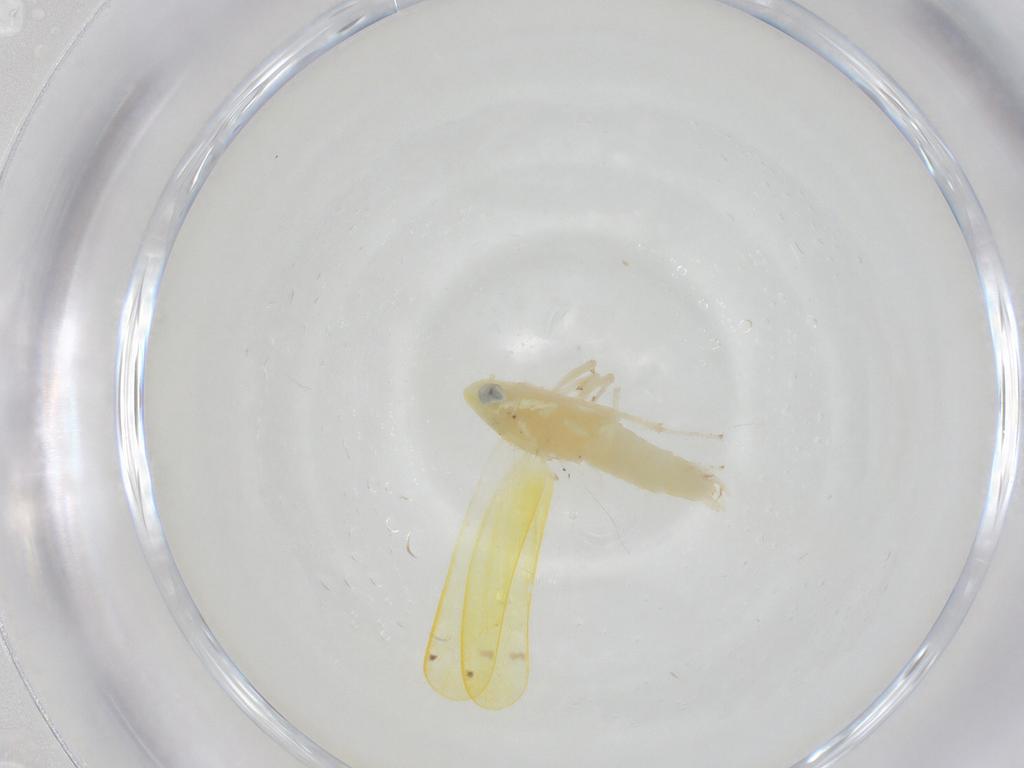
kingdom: Animalia
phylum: Arthropoda
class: Insecta
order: Hemiptera
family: Cicadellidae
